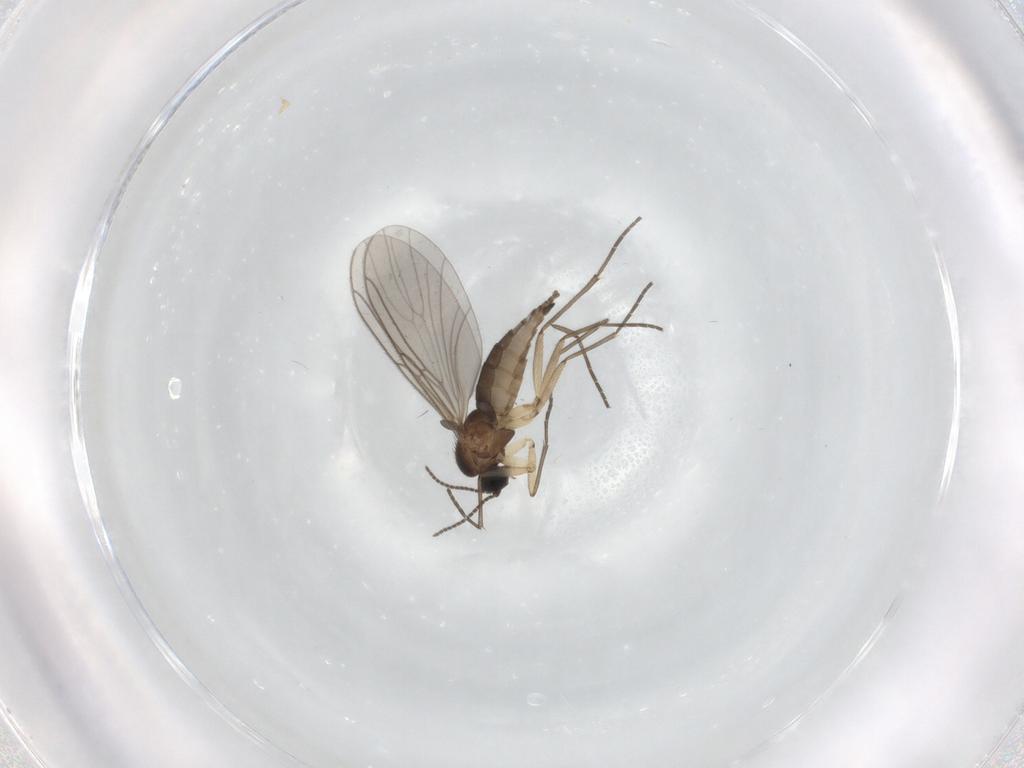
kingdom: Animalia
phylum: Arthropoda
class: Insecta
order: Diptera
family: Sciaridae
